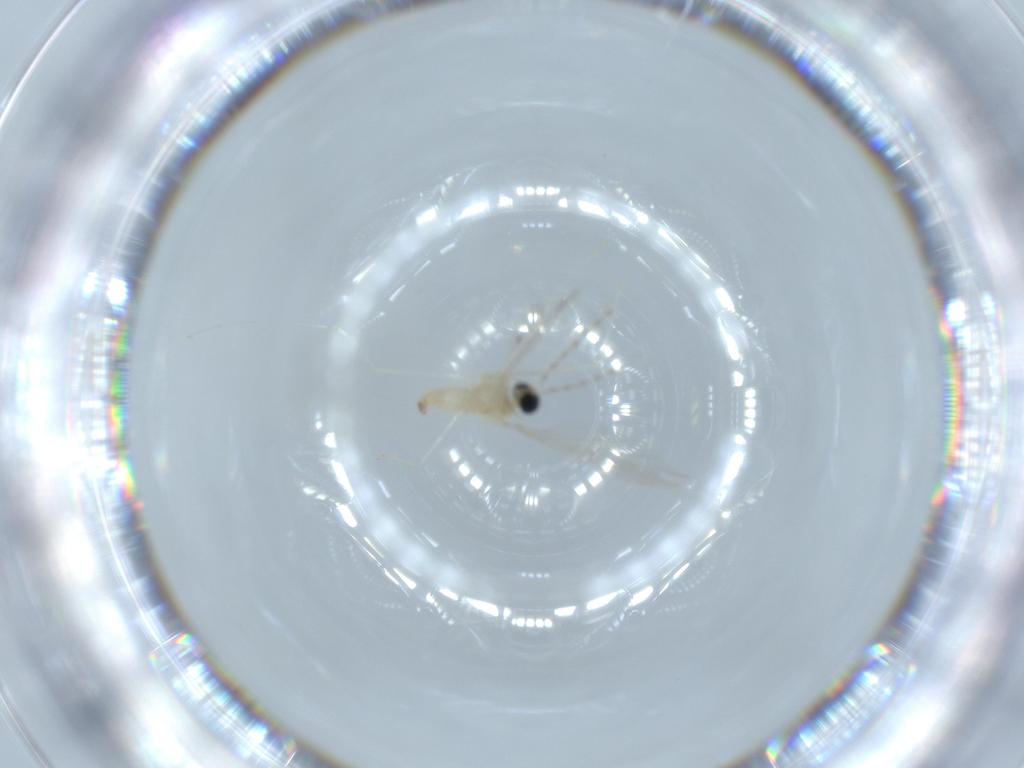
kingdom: Animalia
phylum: Arthropoda
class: Insecta
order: Diptera
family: Cecidomyiidae
